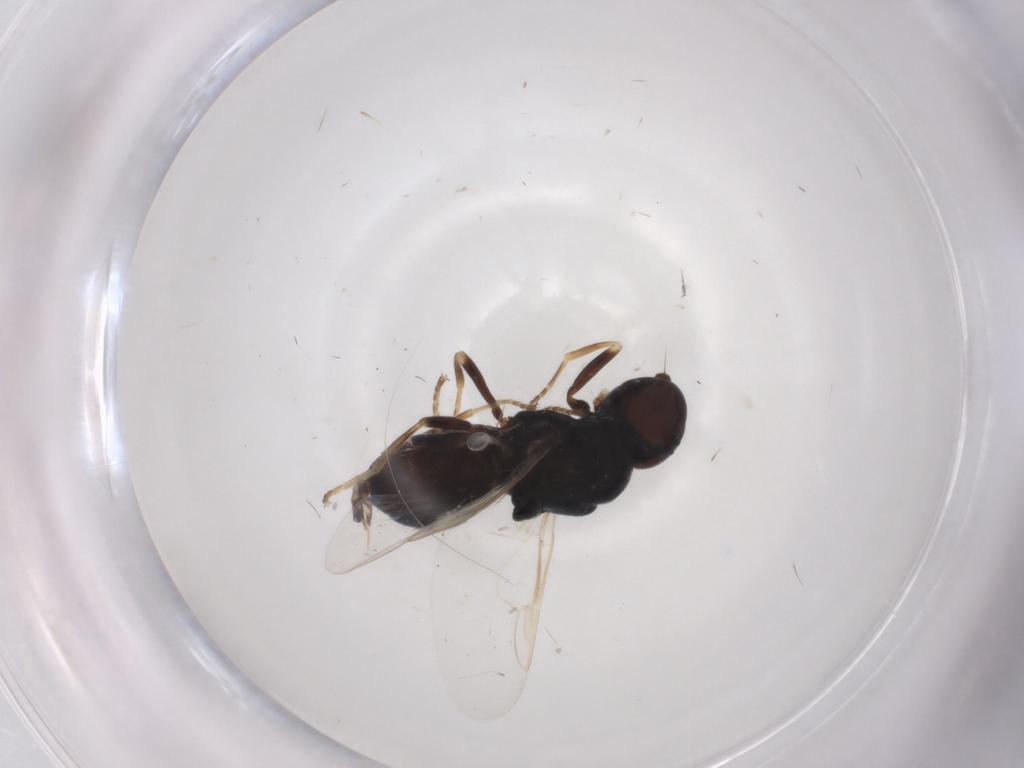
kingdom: Animalia
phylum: Arthropoda
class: Insecta
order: Diptera
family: Stratiomyidae
